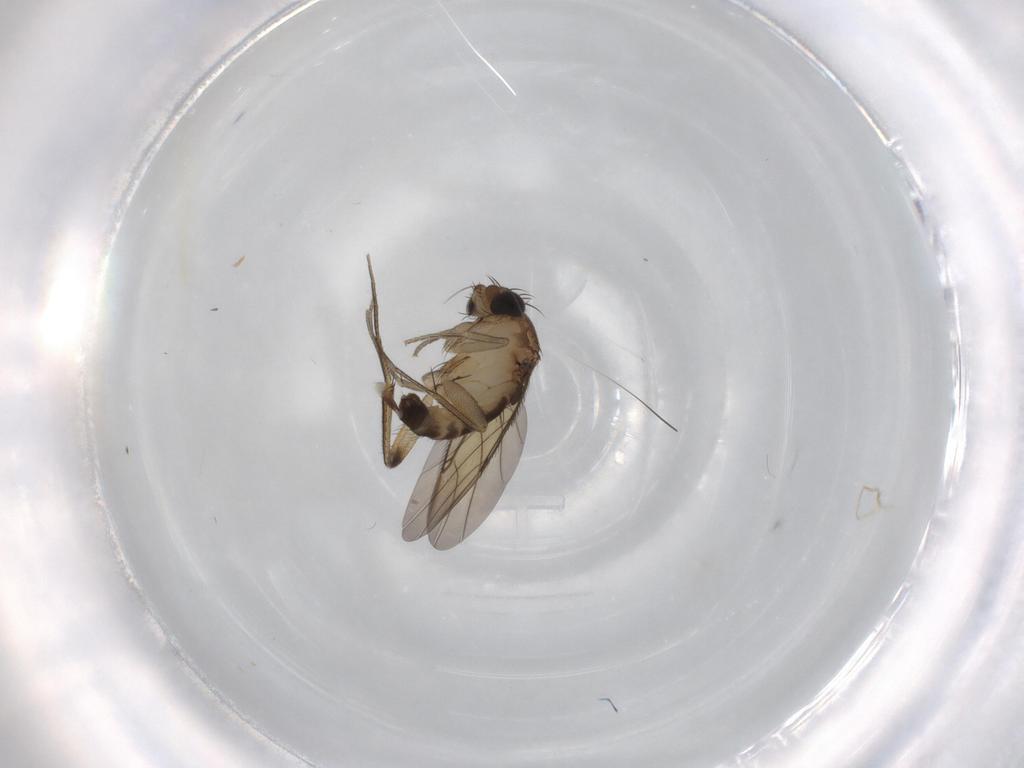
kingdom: Animalia
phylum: Arthropoda
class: Insecta
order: Diptera
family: Phoridae
